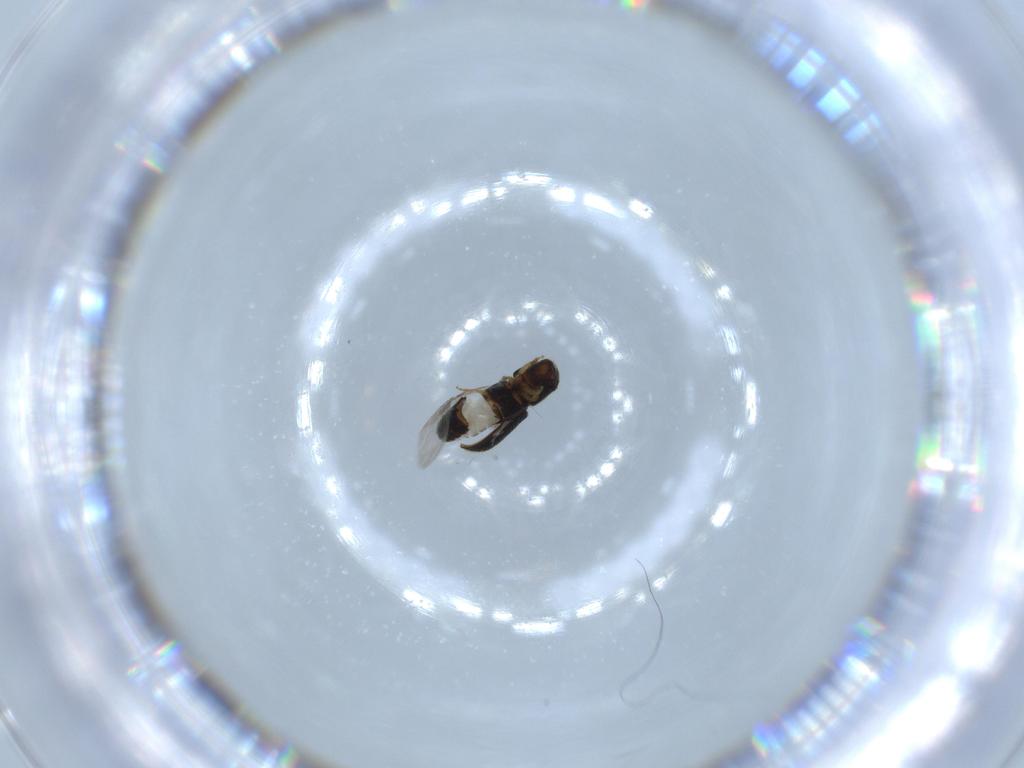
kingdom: Animalia
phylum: Arthropoda
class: Insecta
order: Coleoptera
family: Curculionidae
